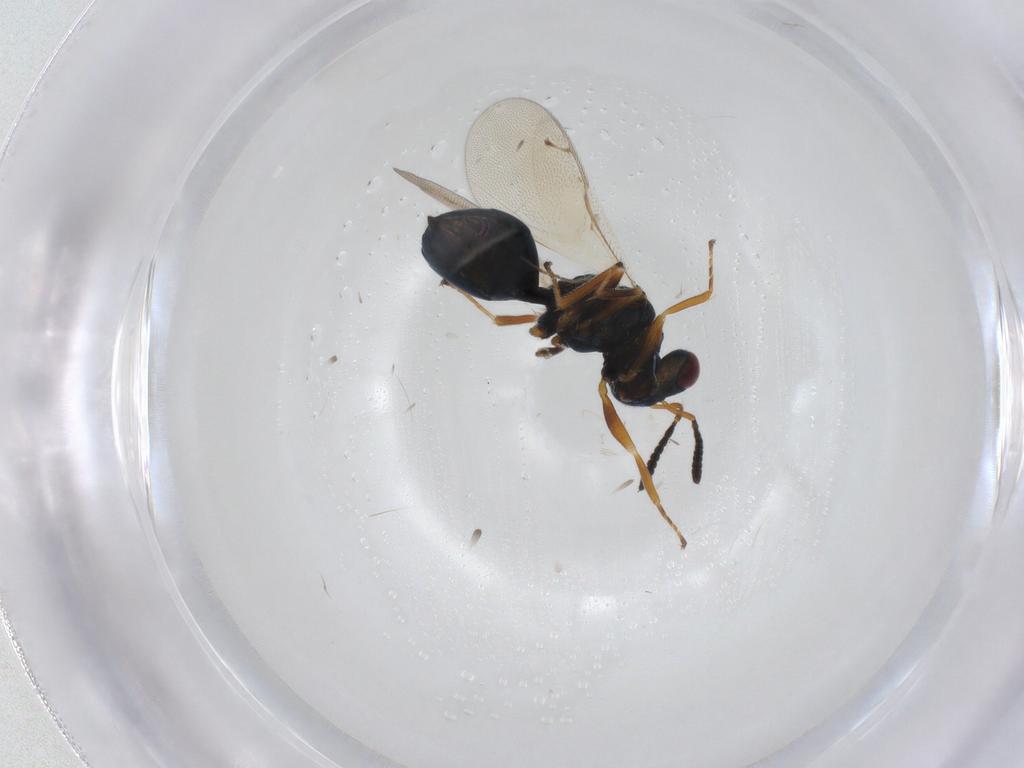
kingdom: Animalia
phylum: Arthropoda
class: Insecta
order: Hymenoptera
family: Pteromalidae
